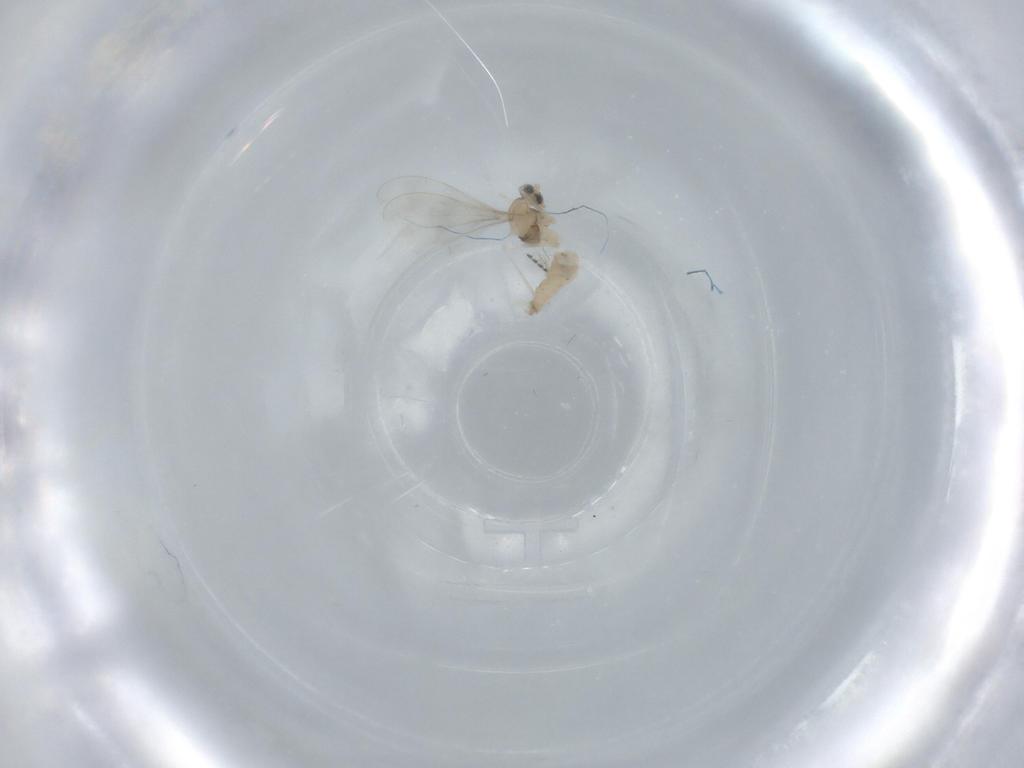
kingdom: Animalia
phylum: Arthropoda
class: Insecta
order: Diptera
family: Cecidomyiidae
